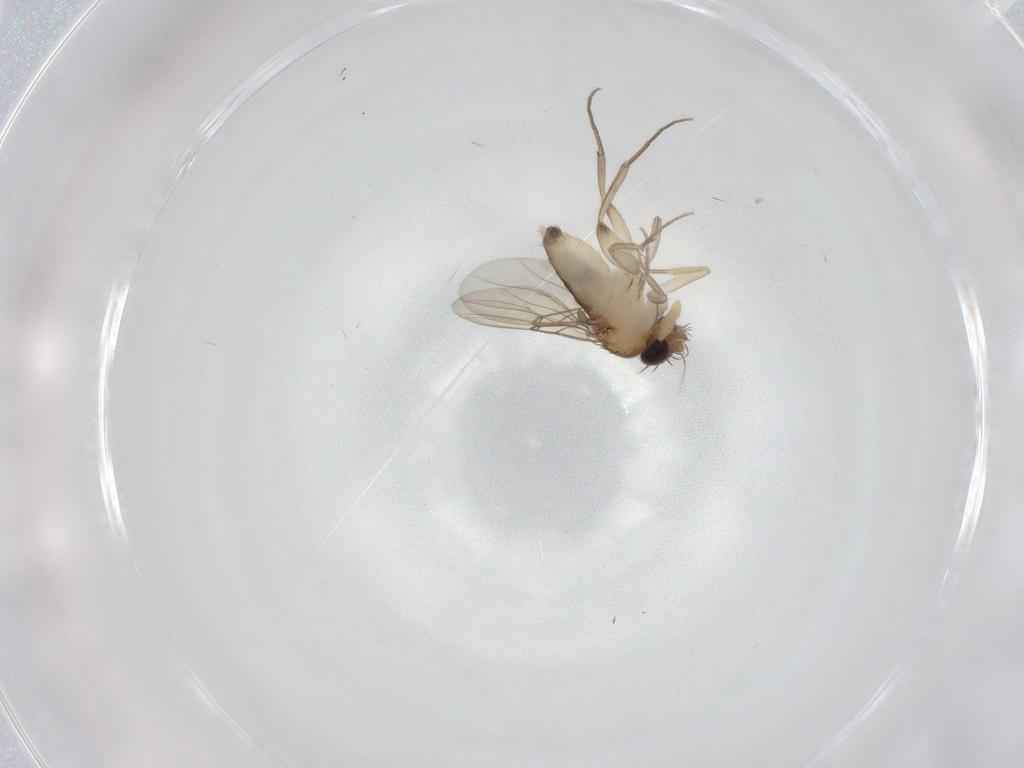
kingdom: Animalia
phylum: Arthropoda
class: Insecta
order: Diptera
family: Phoridae
